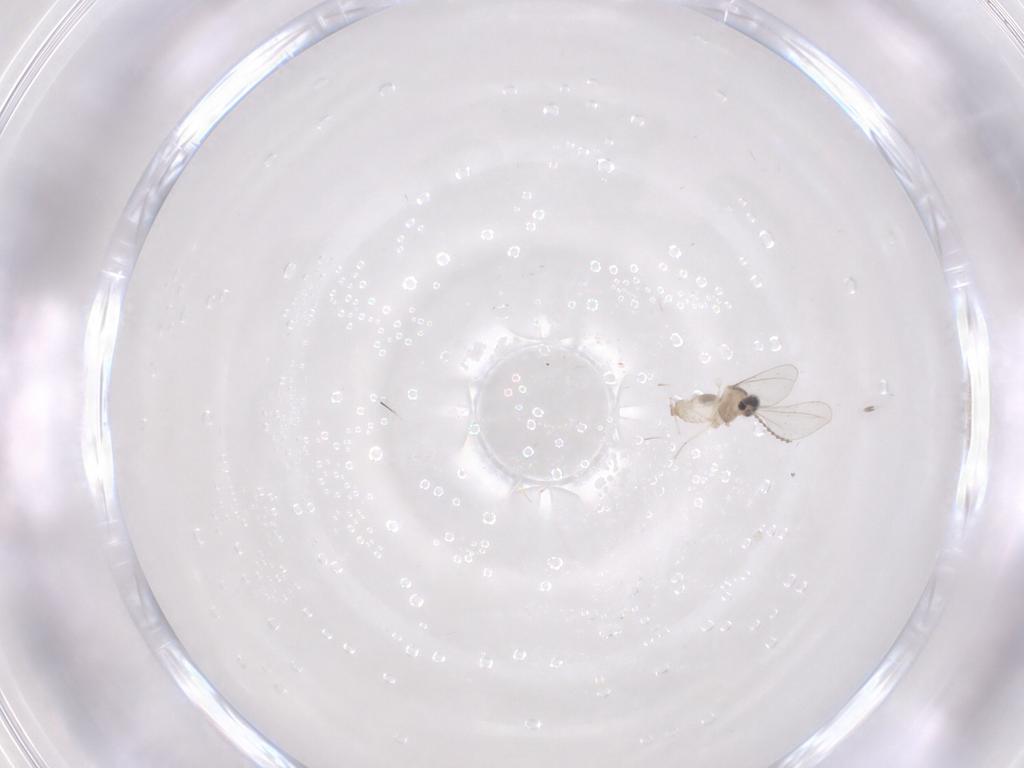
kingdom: Animalia
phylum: Arthropoda
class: Insecta
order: Diptera
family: Cecidomyiidae
